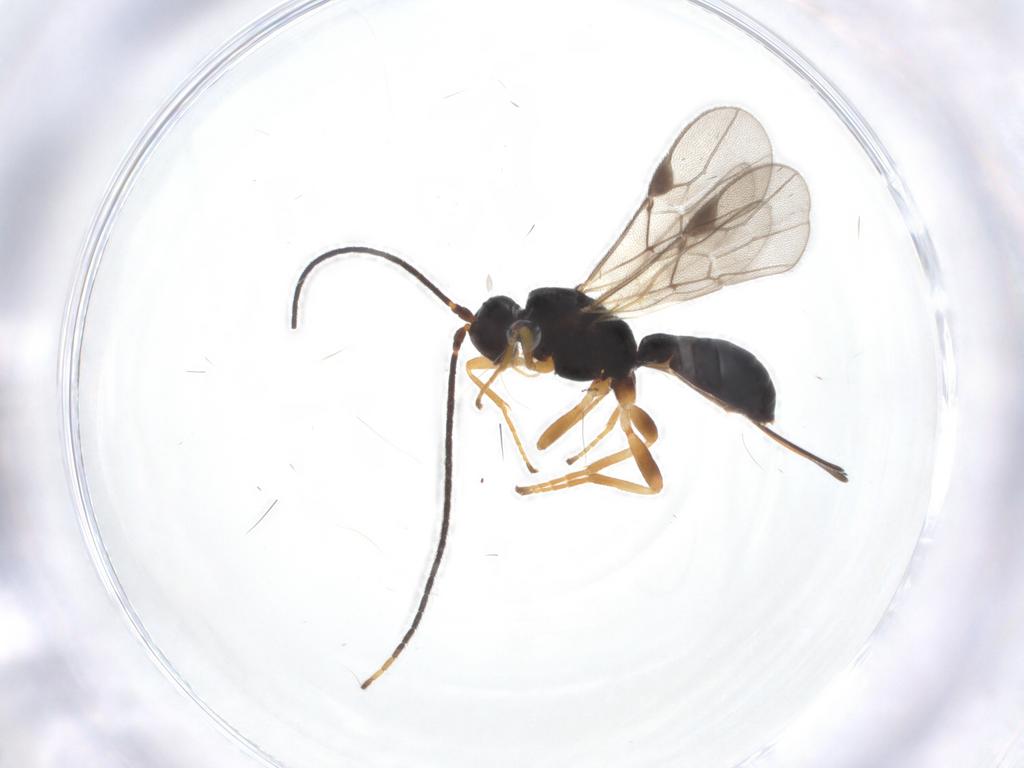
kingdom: Animalia
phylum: Arthropoda
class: Insecta
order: Hymenoptera
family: Braconidae
